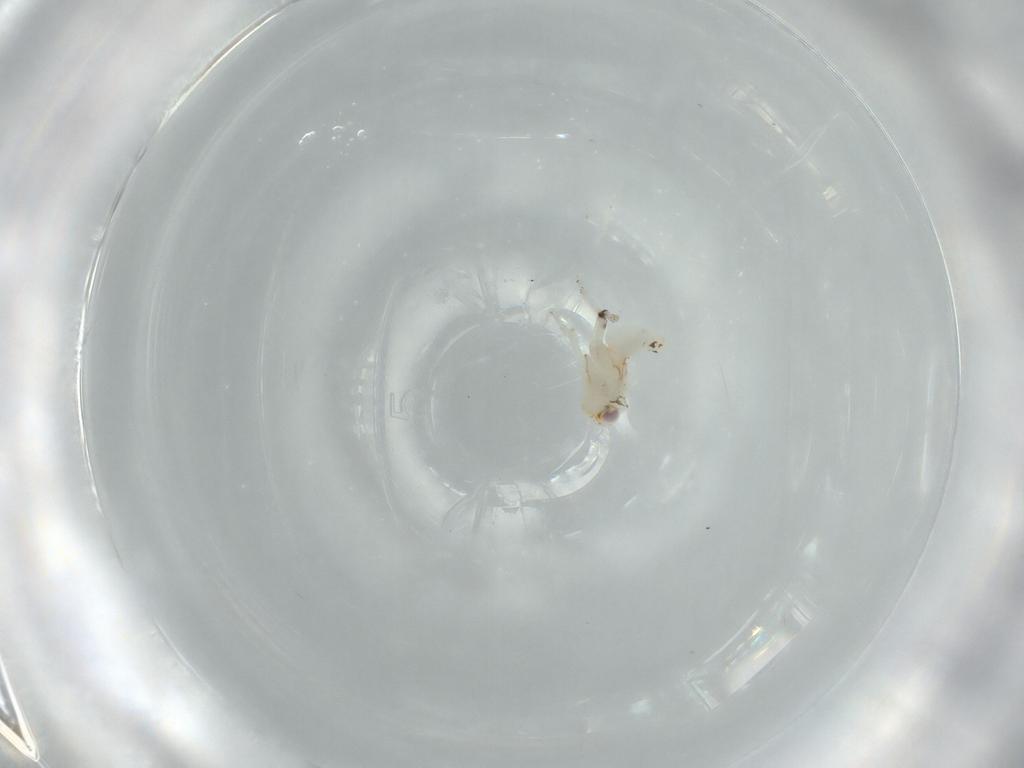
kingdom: Animalia
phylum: Arthropoda
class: Insecta
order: Hemiptera
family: Nogodinidae
